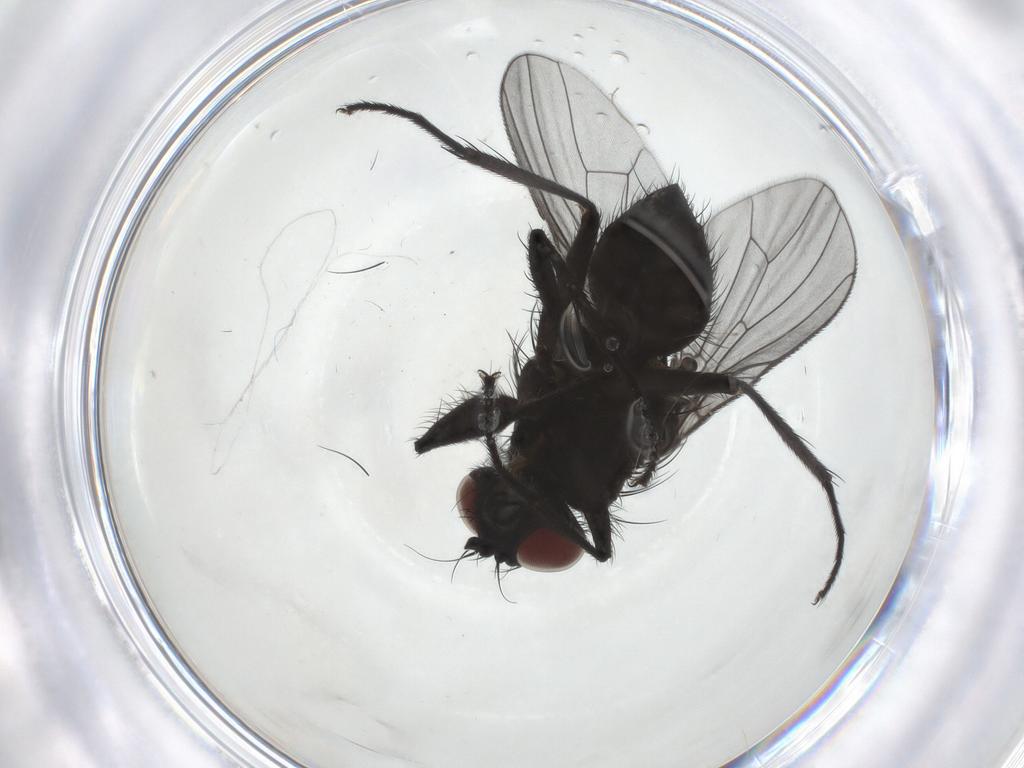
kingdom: Animalia
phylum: Arthropoda
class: Insecta
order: Diptera
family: Muscidae
